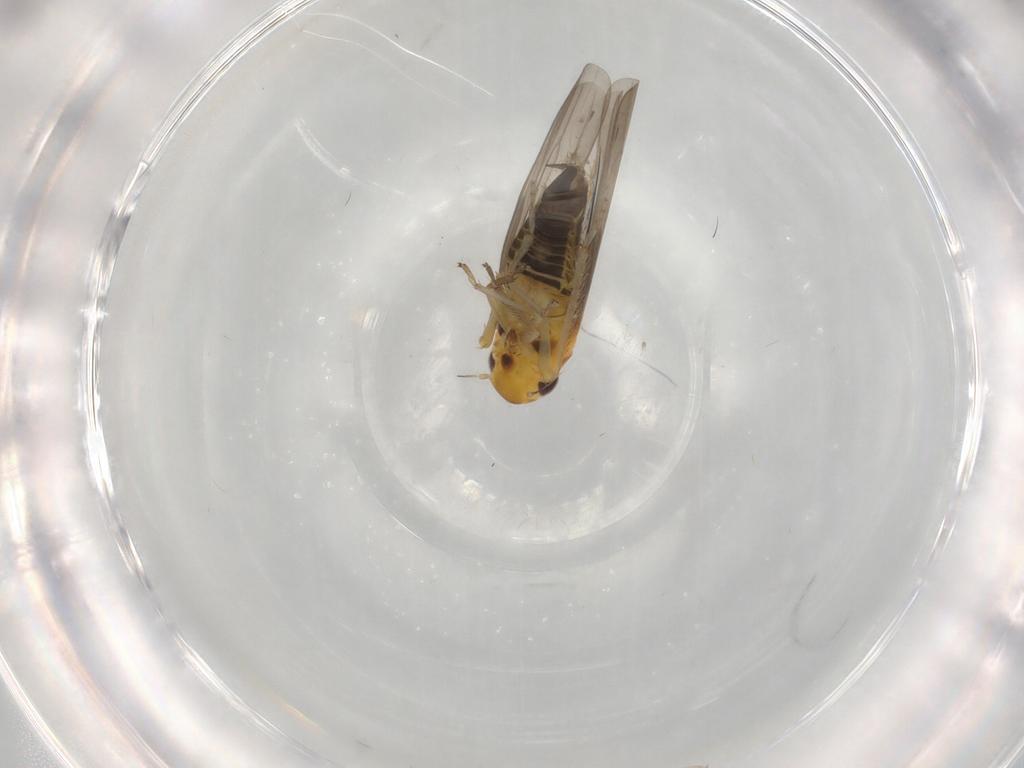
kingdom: Animalia
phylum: Arthropoda
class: Insecta
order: Hemiptera
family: Cicadellidae
